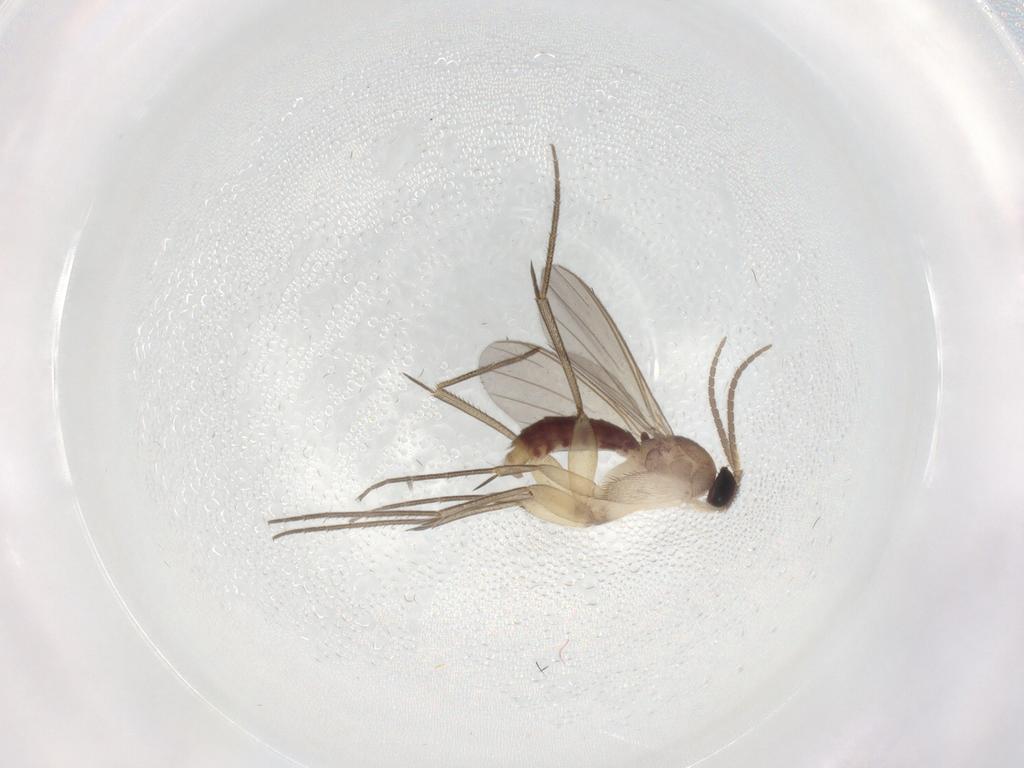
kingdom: Animalia
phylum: Arthropoda
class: Insecta
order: Diptera
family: Mycetophilidae
